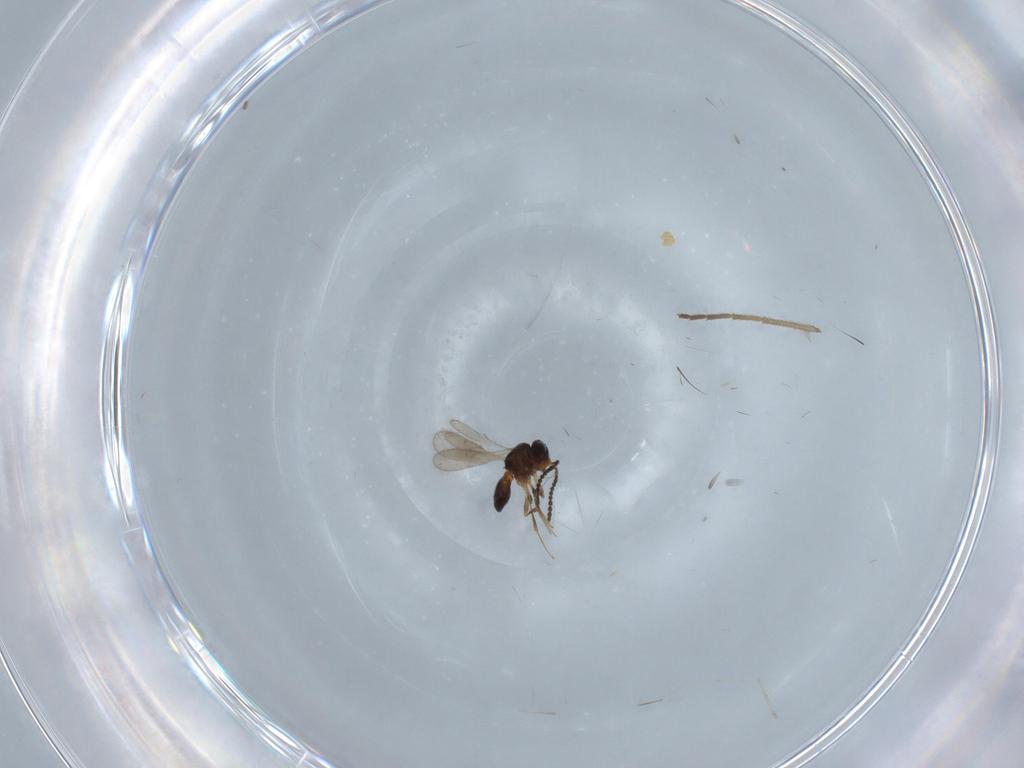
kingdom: Animalia
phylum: Arthropoda
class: Insecta
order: Hymenoptera
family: Scelionidae
